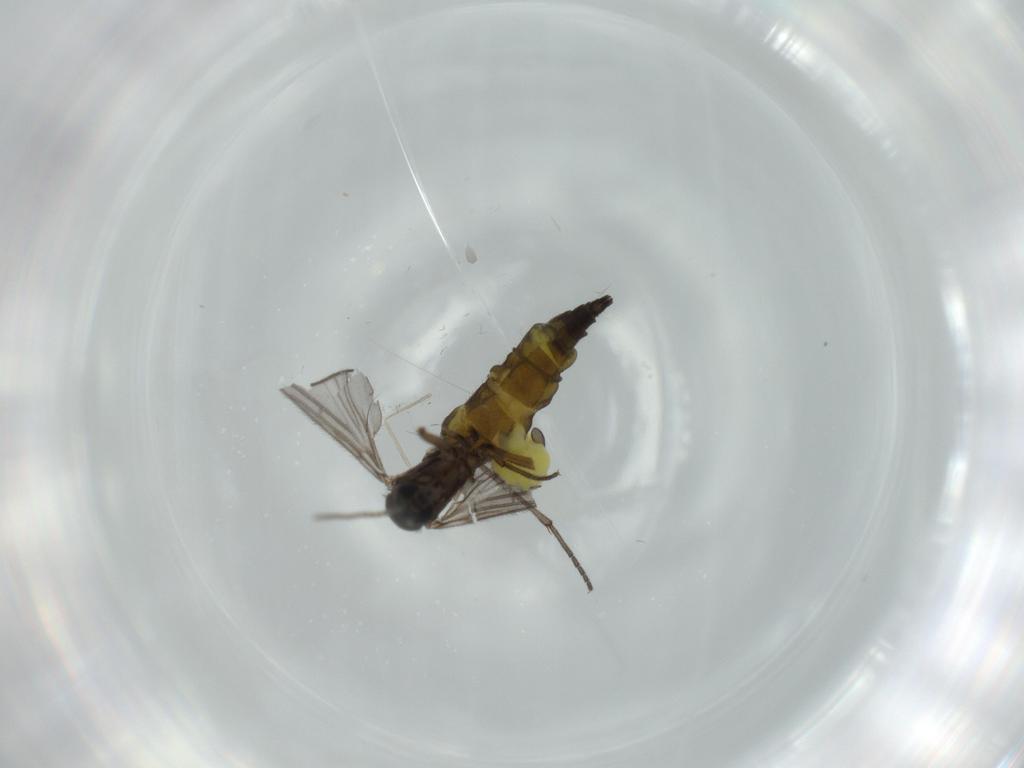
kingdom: Animalia
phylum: Arthropoda
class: Insecta
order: Diptera
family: Sciaridae
